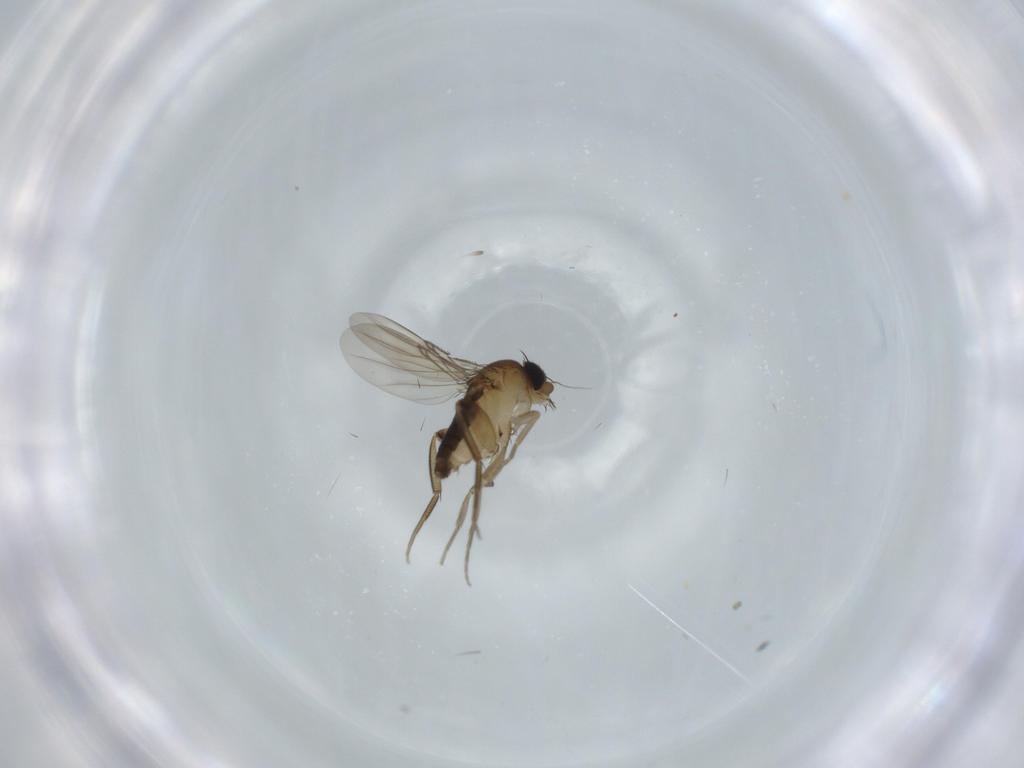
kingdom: Animalia
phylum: Arthropoda
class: Insecta
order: Diptera
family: Phoridae
